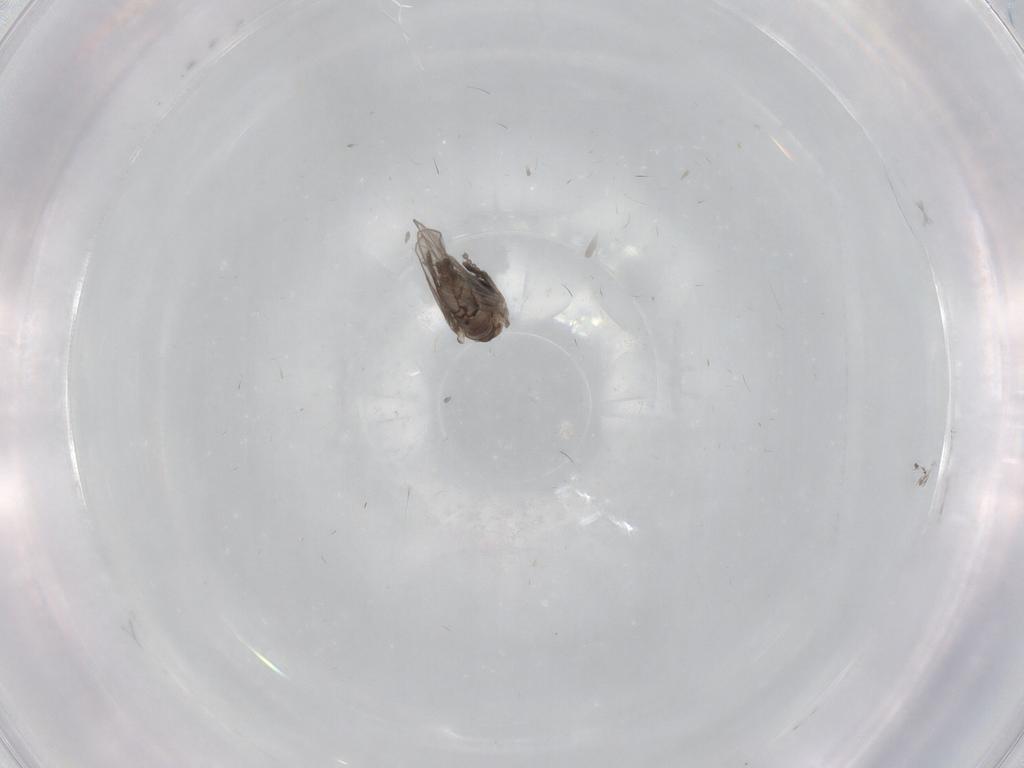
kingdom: Animalia
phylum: Arthropoda
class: Insecta
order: Diptera
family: Psychodidae
